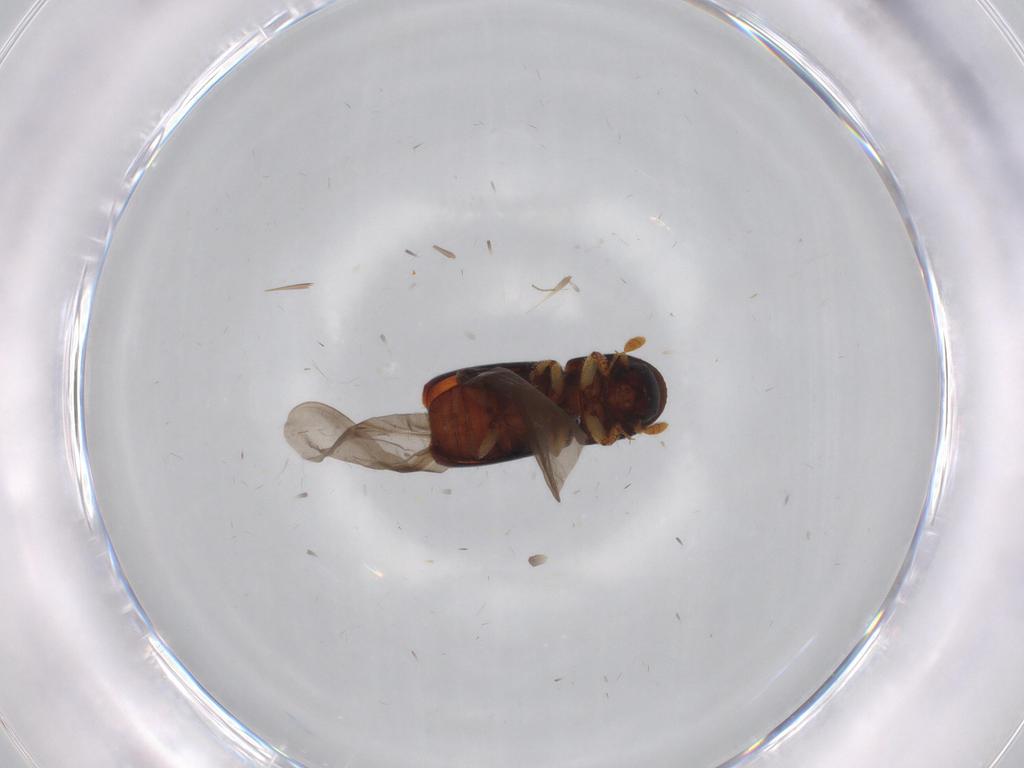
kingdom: Animalia
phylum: Arthropoda
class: Insecta
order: Coleoptera
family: Curculionidae
